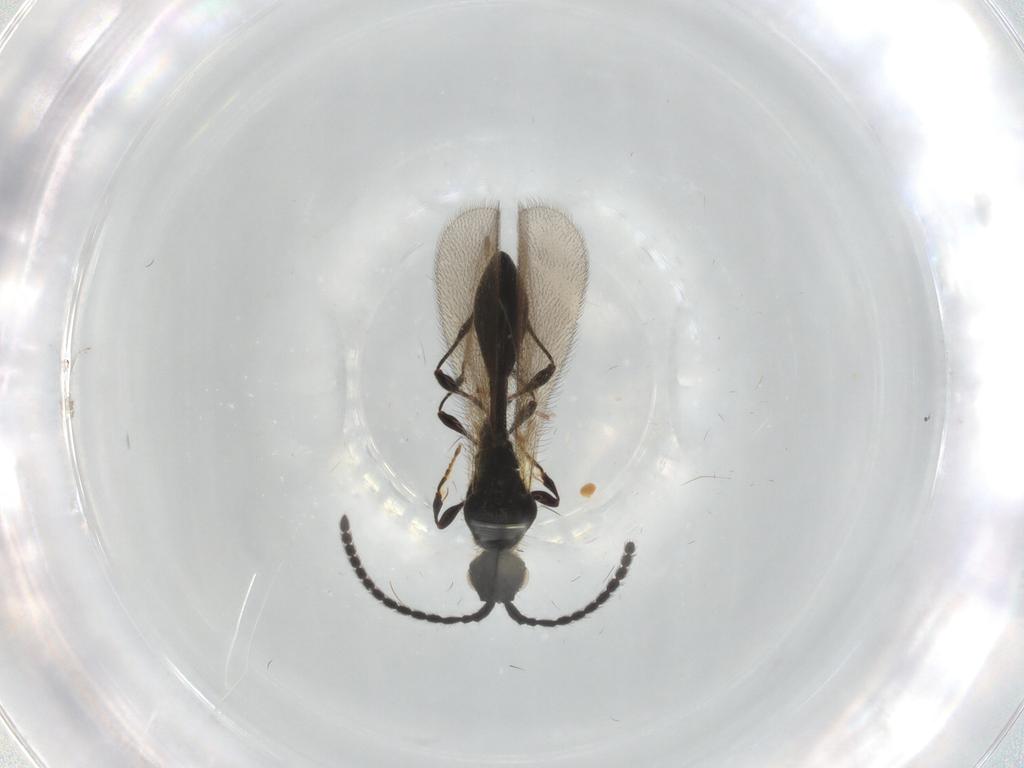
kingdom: Animalia
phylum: Arthropoda
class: Insecta
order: Hymenoptera
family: Diapriidae
